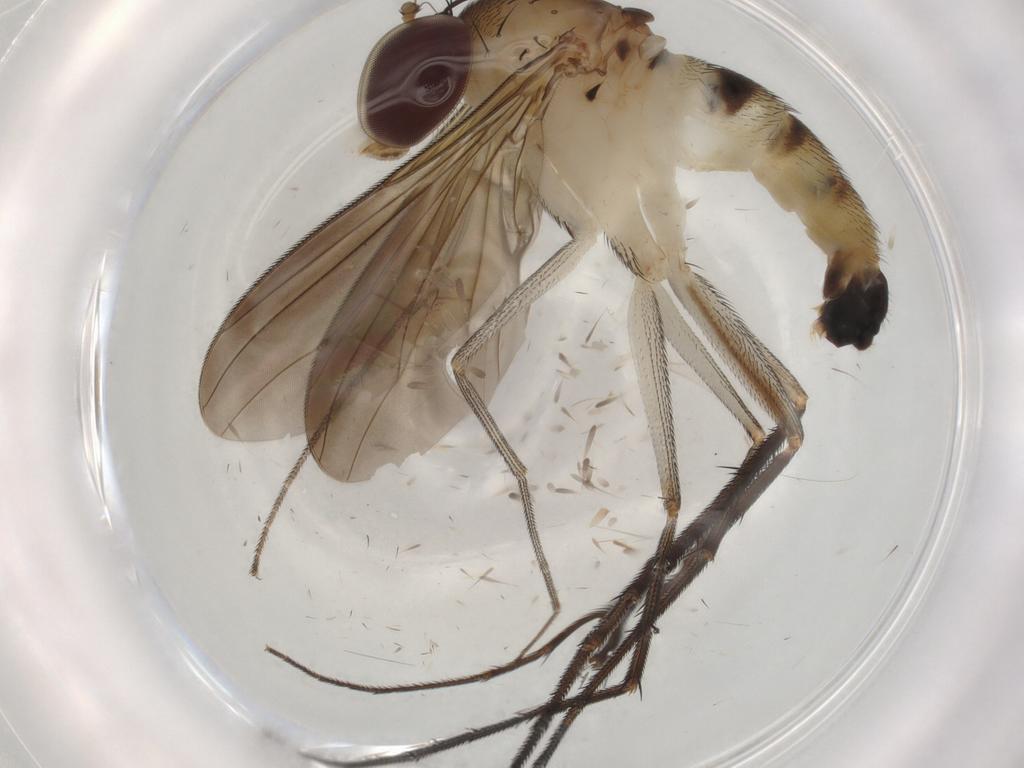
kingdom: Animalia
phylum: Arthropoda
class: Insecta
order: Diptera
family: Dolichopodidae
